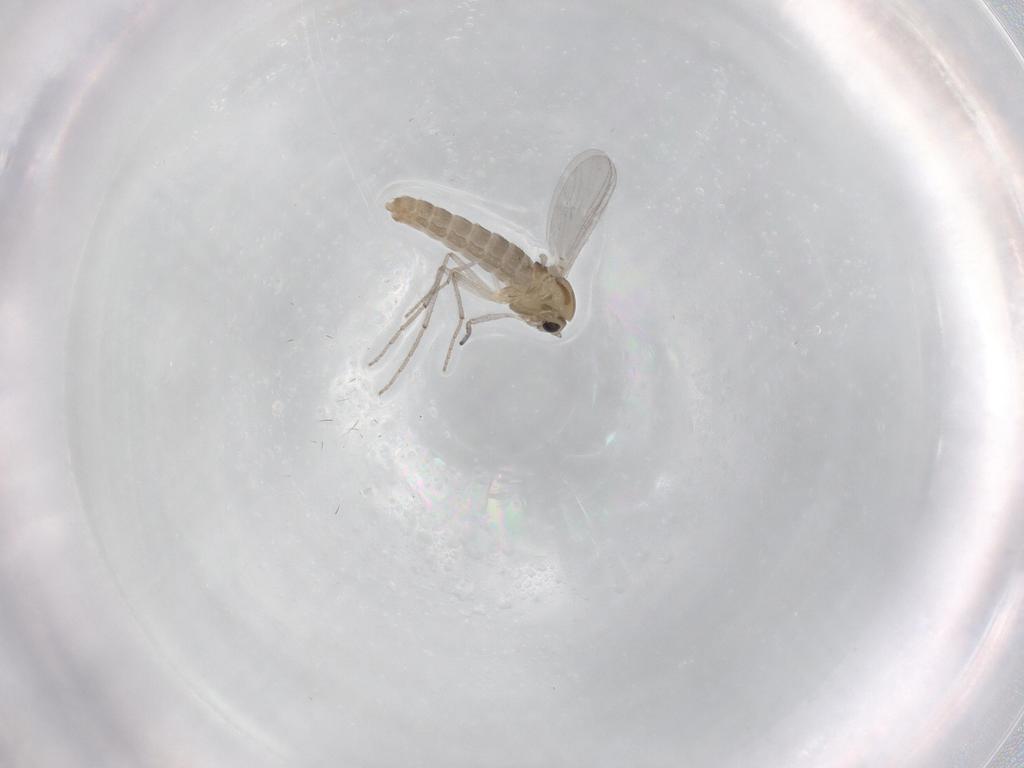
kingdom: Animalia
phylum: Arthropoda
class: Insecta
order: Diptera
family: Chironomidae
